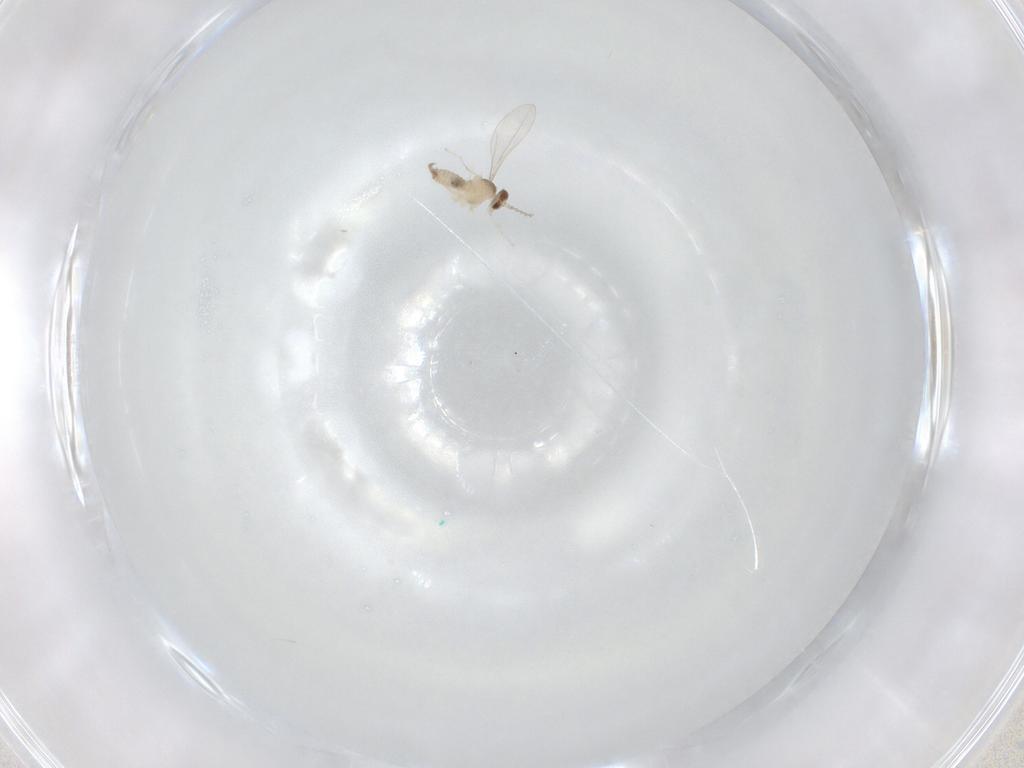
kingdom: Animalia
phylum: Arthropoda
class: Insecta
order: Diptera
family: Cecidomyiidae
